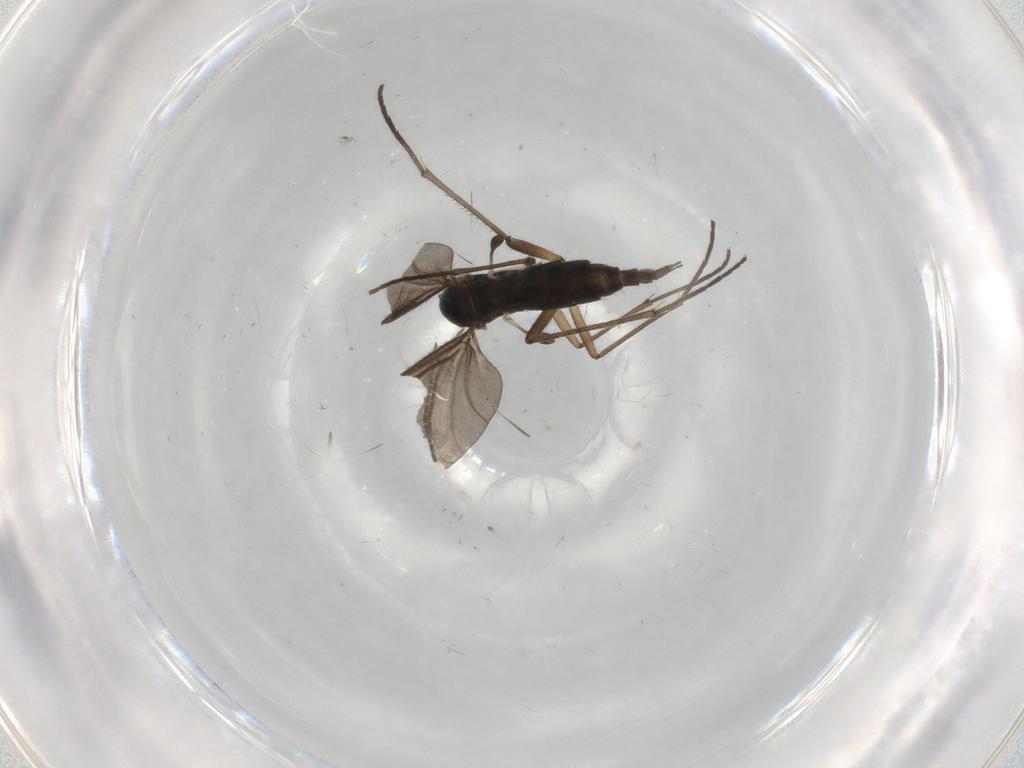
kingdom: Animalia
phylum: Arthropoda
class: Insecta
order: Diptera
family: Sciaridae
